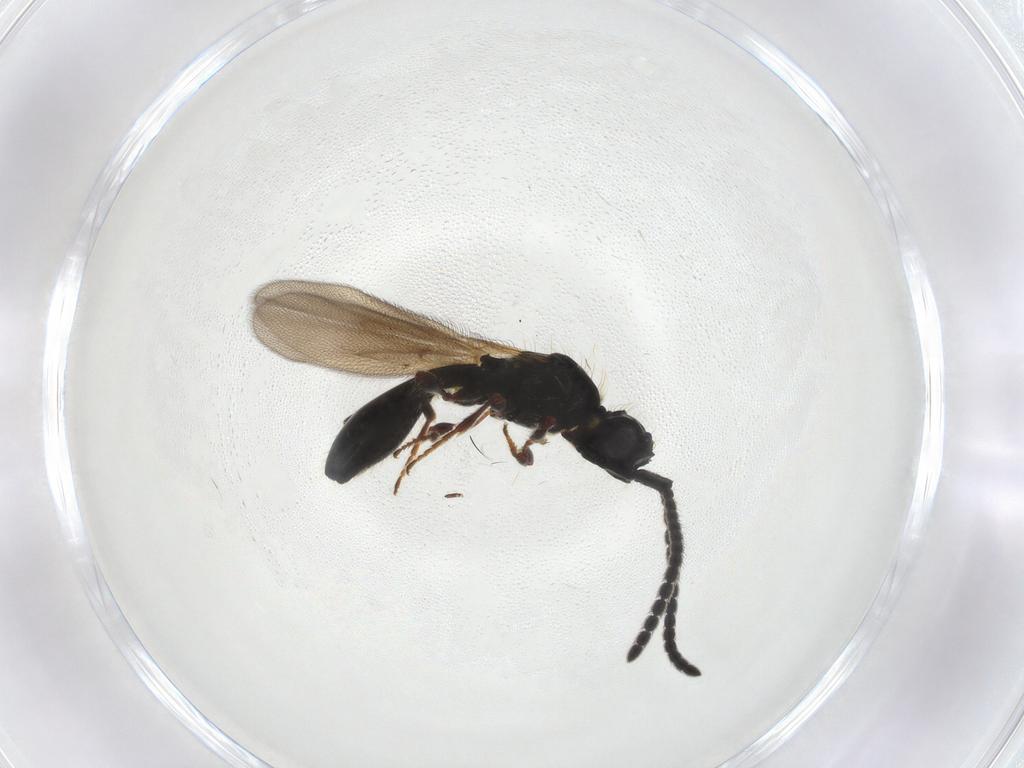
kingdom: Animalia
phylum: Arthropoda
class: Insecta
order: Hymenoptera
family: Diapriidae
